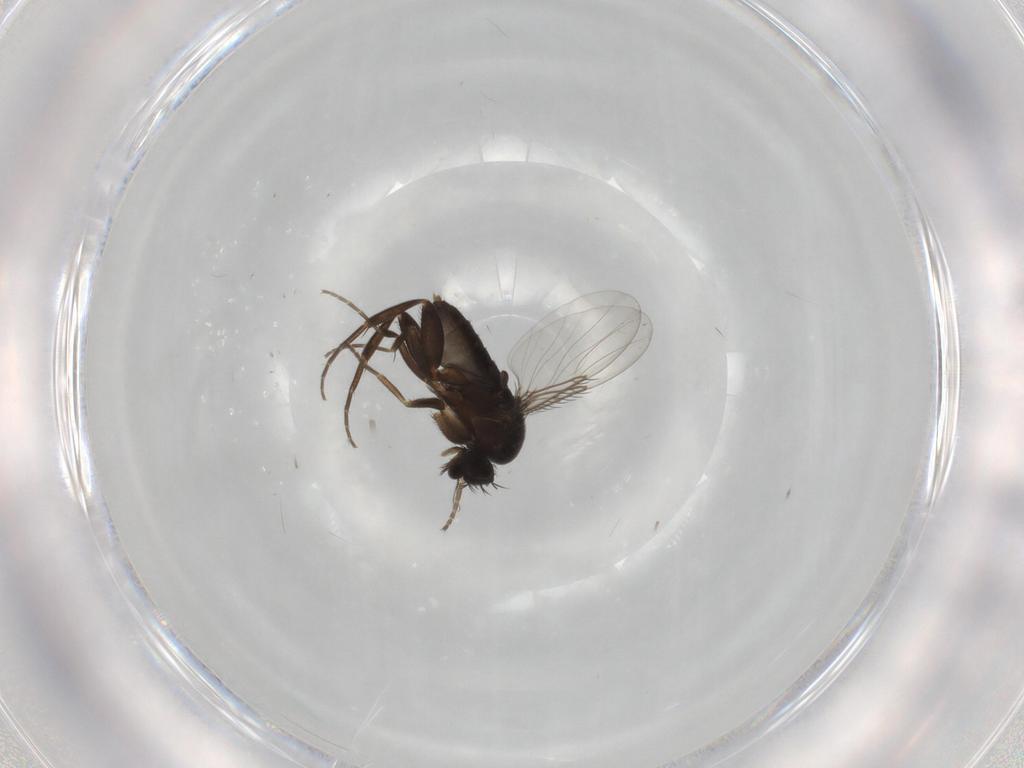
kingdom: Animalia
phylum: Arthropoda
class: Insecta
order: Diptera
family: Phoridae
